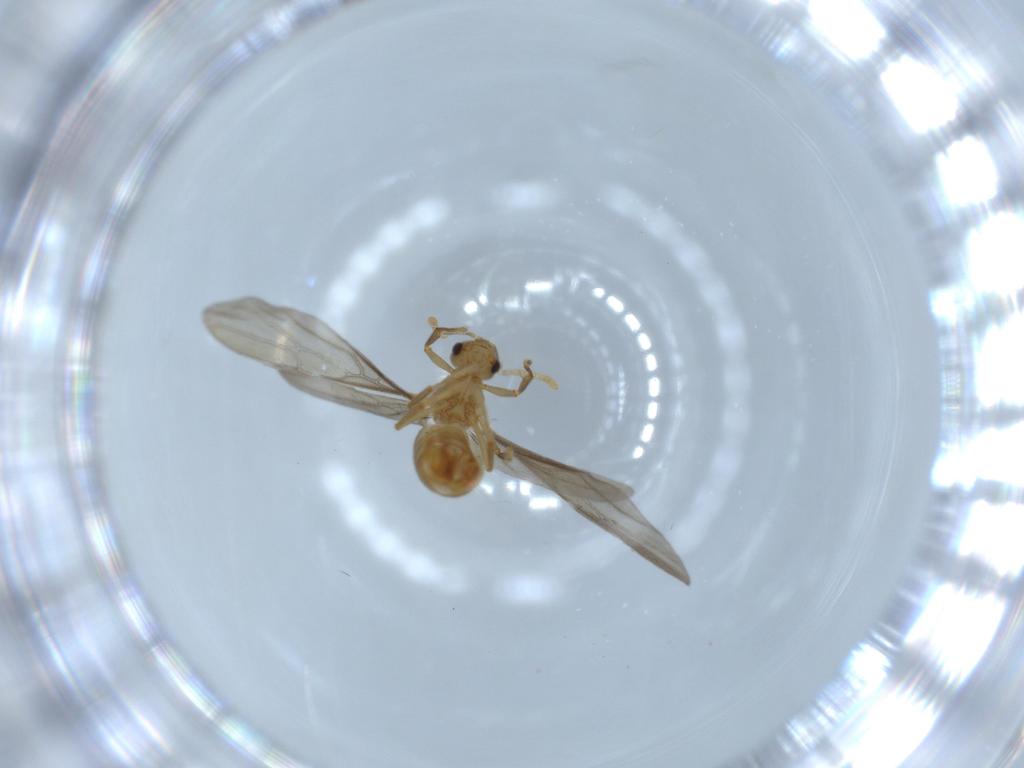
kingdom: Animalia
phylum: Arthropoda
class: Insecta
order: Hymenoptera
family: Formicidae
